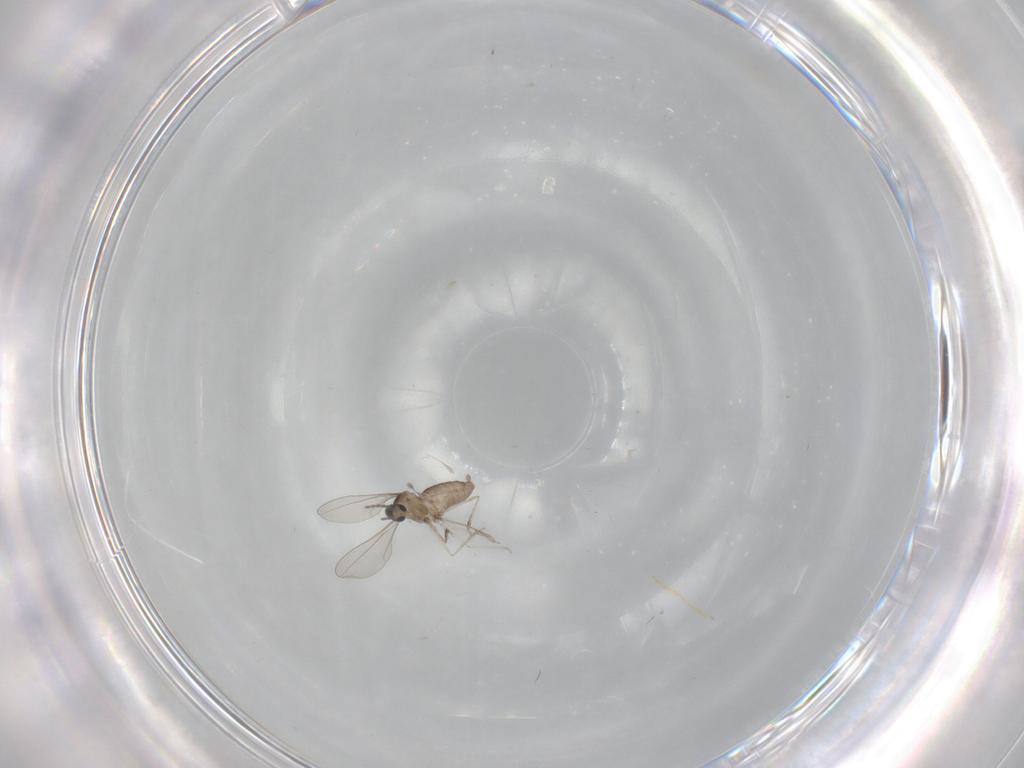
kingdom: Animalia
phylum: Arthropoda
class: Insecta
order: Diptera
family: Cecidomyiidae
